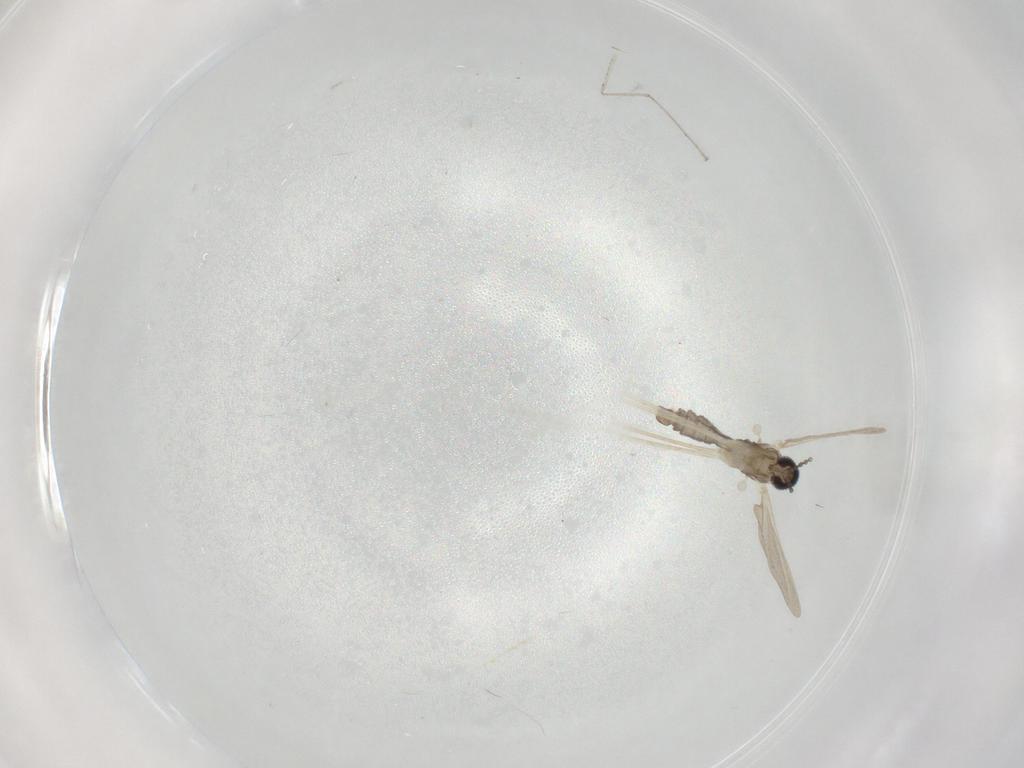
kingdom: Animalia
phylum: Arthropoda
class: Insecta
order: Diptera
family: Cecidomyiidae
